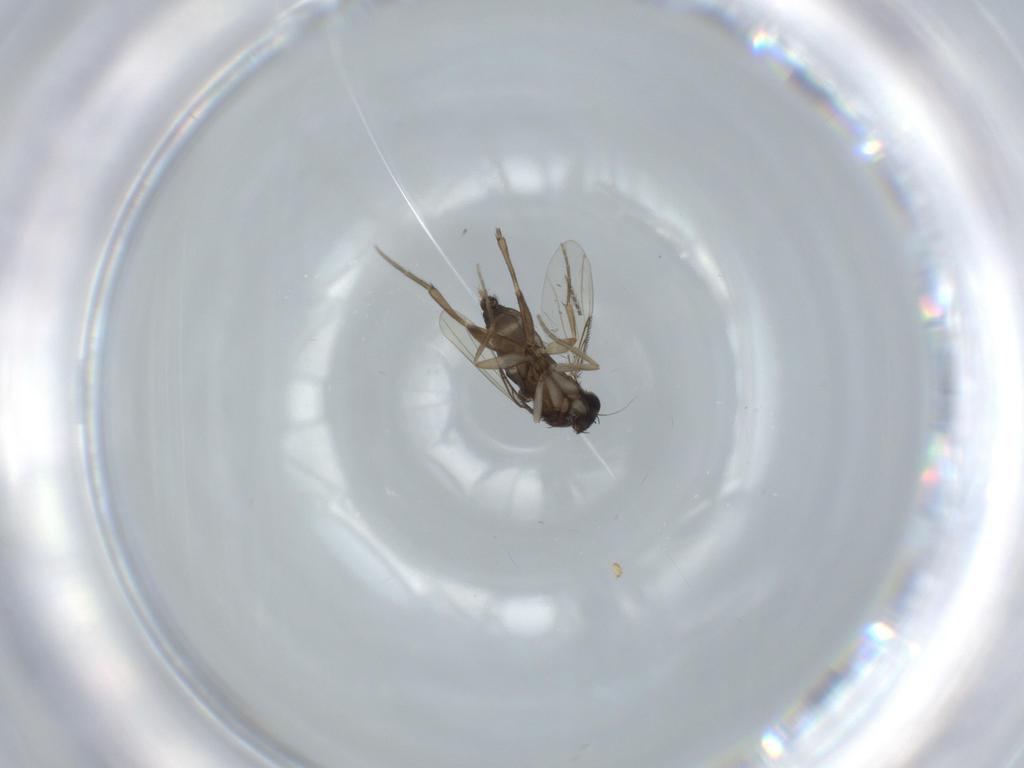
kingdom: Animalia
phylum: Arthropoda
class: Insecta
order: Diptera
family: Phoridae
